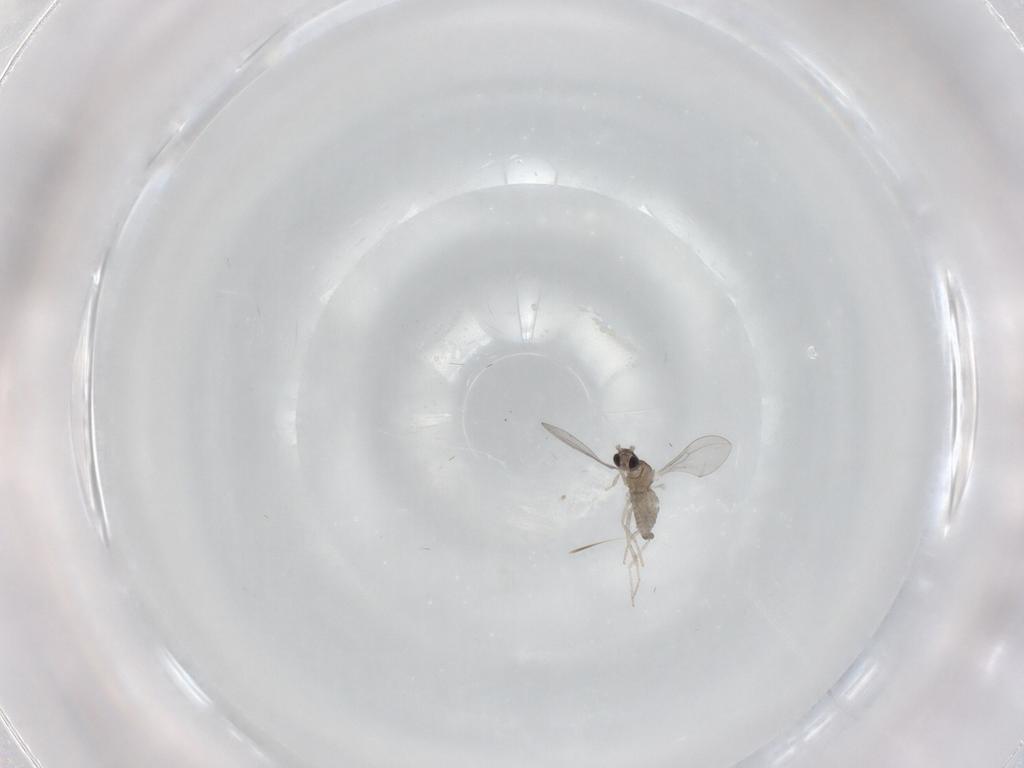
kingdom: Animalia
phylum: Arthropoda
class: Insecta
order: Diptera
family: Cecidomyiidae
